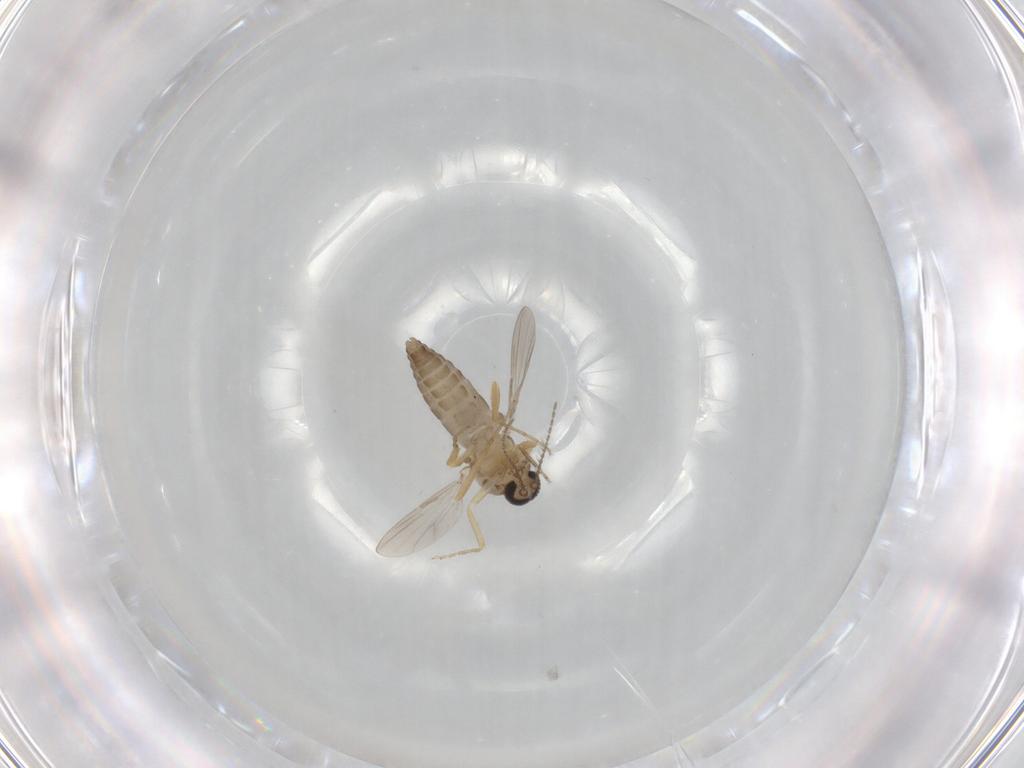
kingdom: Animalia
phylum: Arthropoda
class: Insecta
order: Diptera
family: Ceratopogonidae
